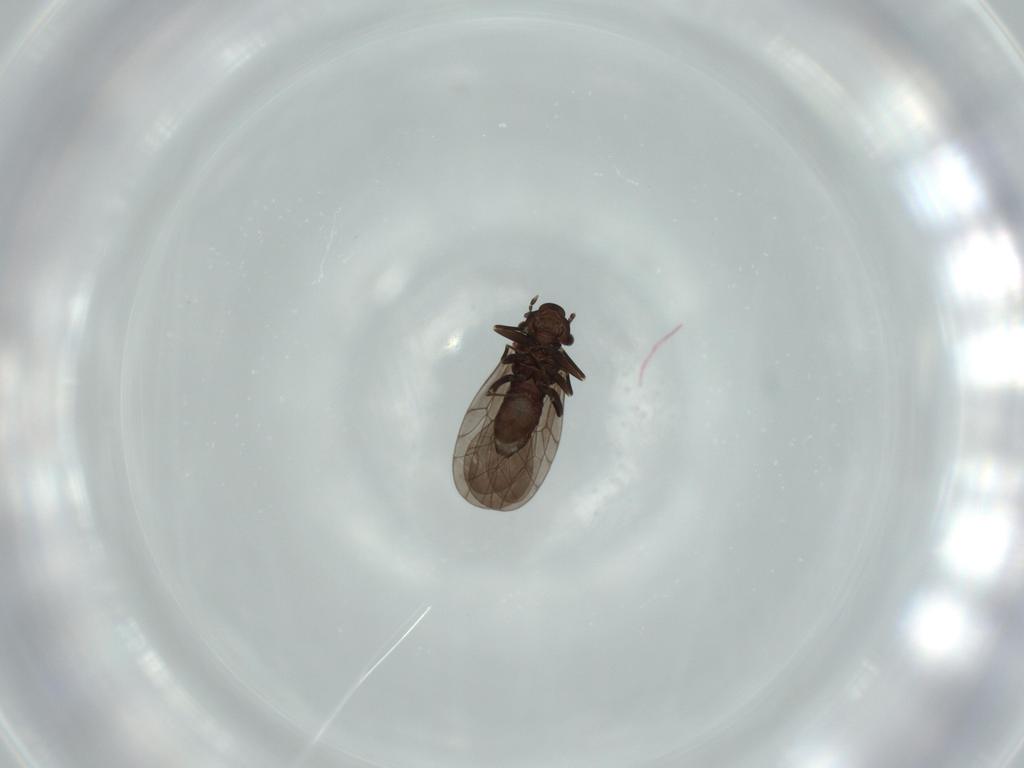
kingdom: Animalia
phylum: Arthropoda
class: Insecta
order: Psocodea
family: Lepidopsocidae
